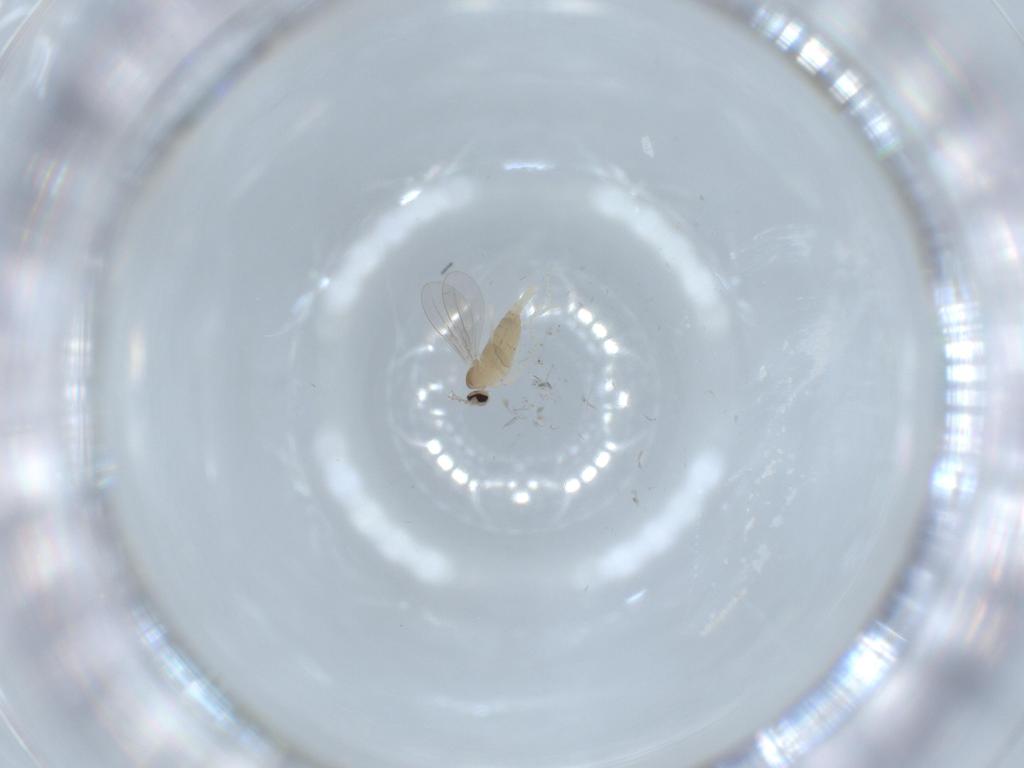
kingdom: Animalia
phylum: Arthropoda
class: Insecta
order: Diptera
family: Cecidomyiidae
